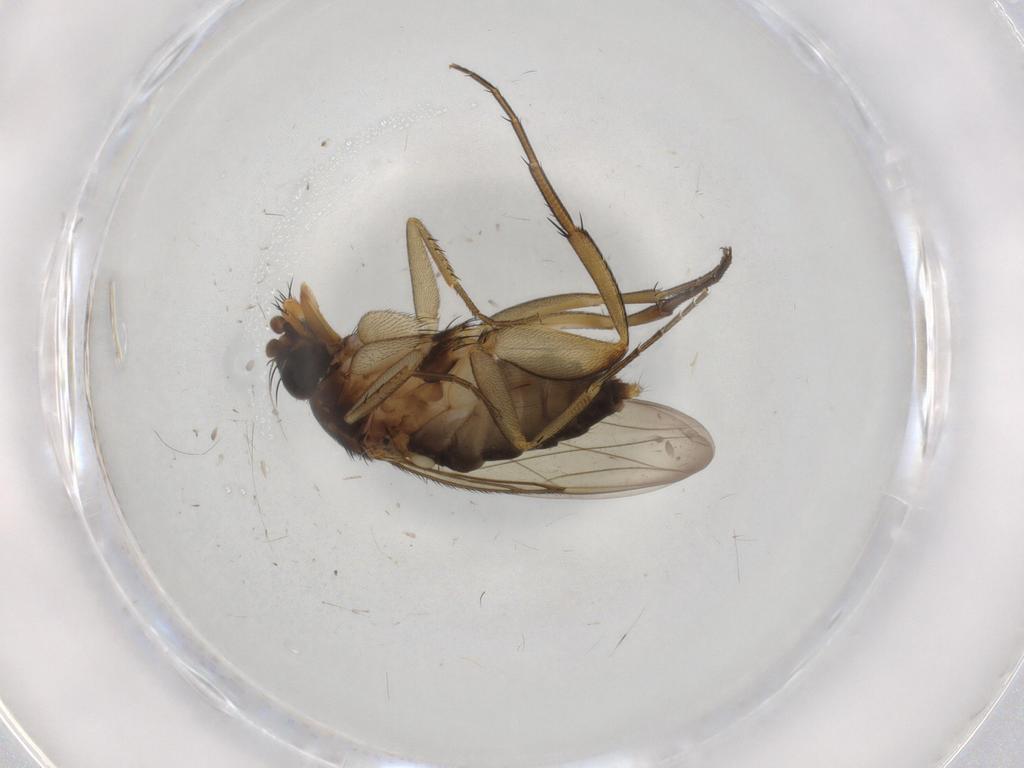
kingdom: Animalia
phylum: Arthropoda
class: Insecta
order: Diptera
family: Phoridae
